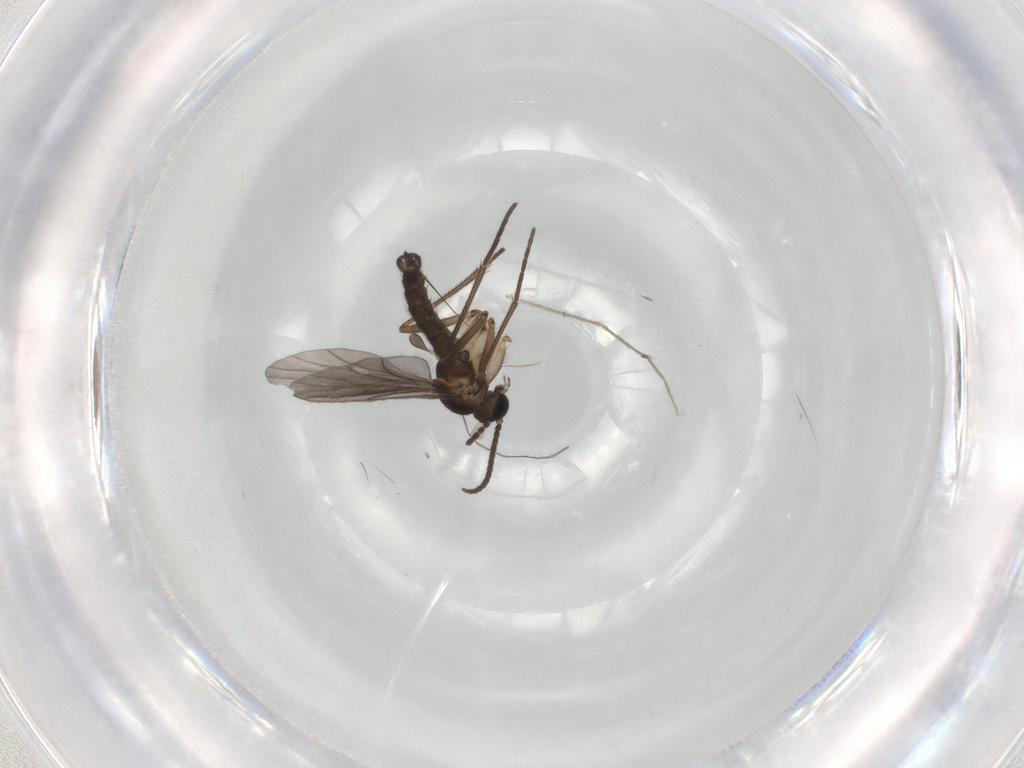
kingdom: Animalia
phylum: Arthropoda
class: Insecta
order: Diptera
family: Sciaridae
